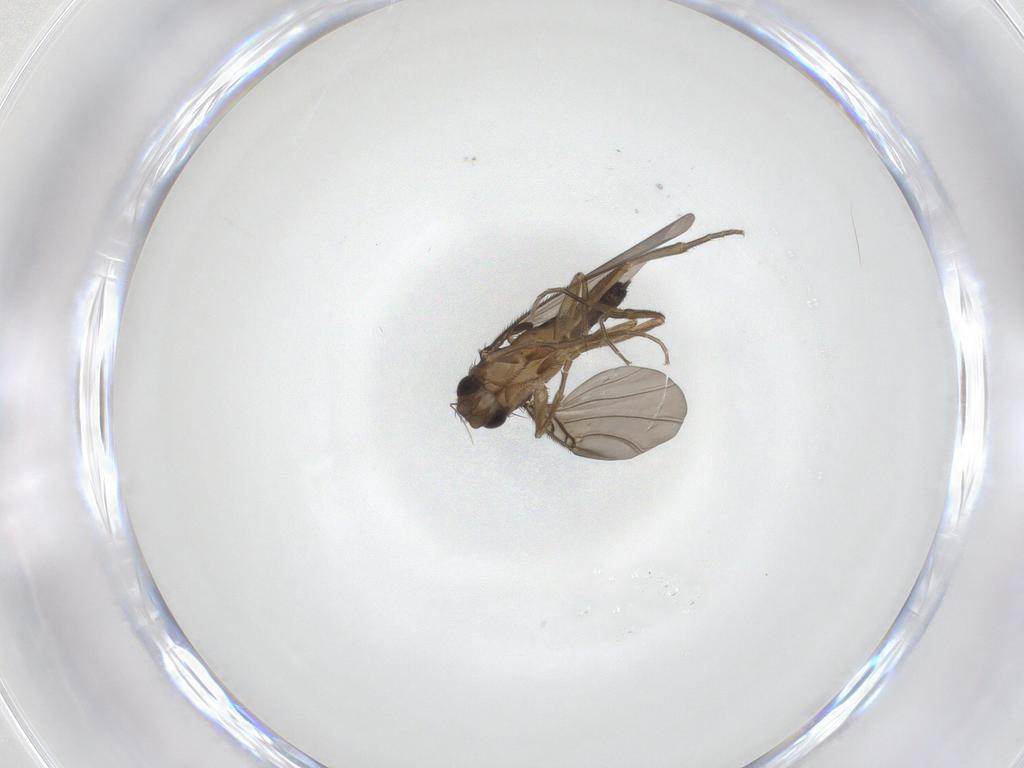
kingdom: Animalia
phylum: Arthropoda
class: Insecta
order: Diptera
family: Phoridae
